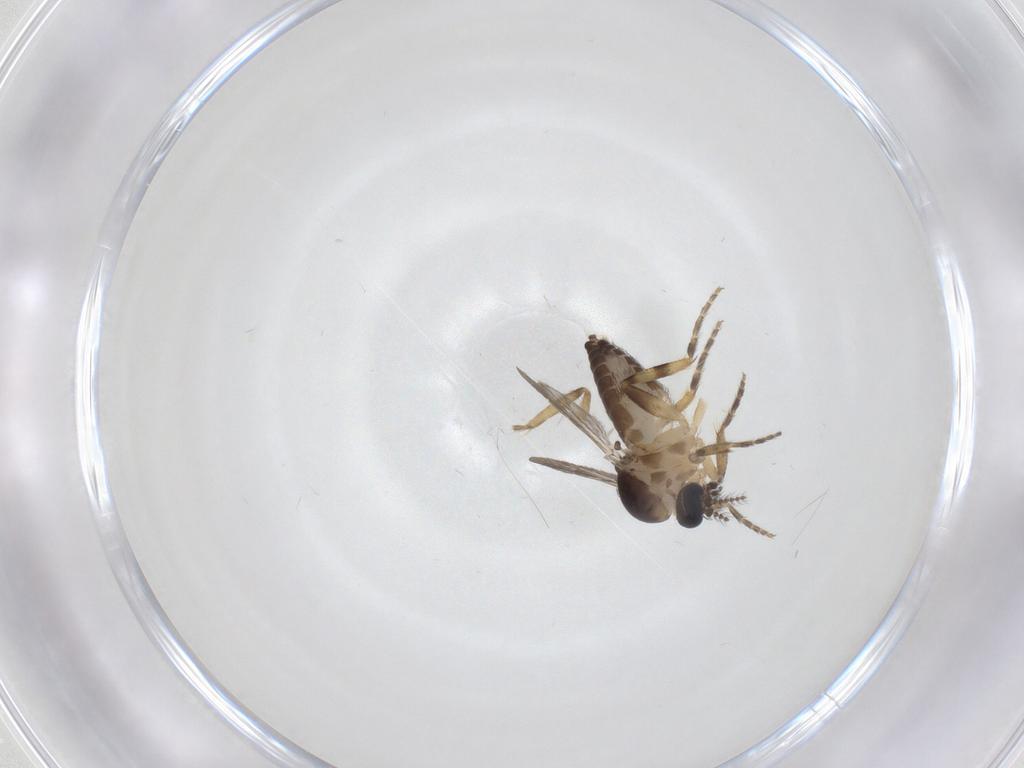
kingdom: Animalia
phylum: Arthropoda
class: Insecta
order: Diptera
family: Ceratopogonidae
